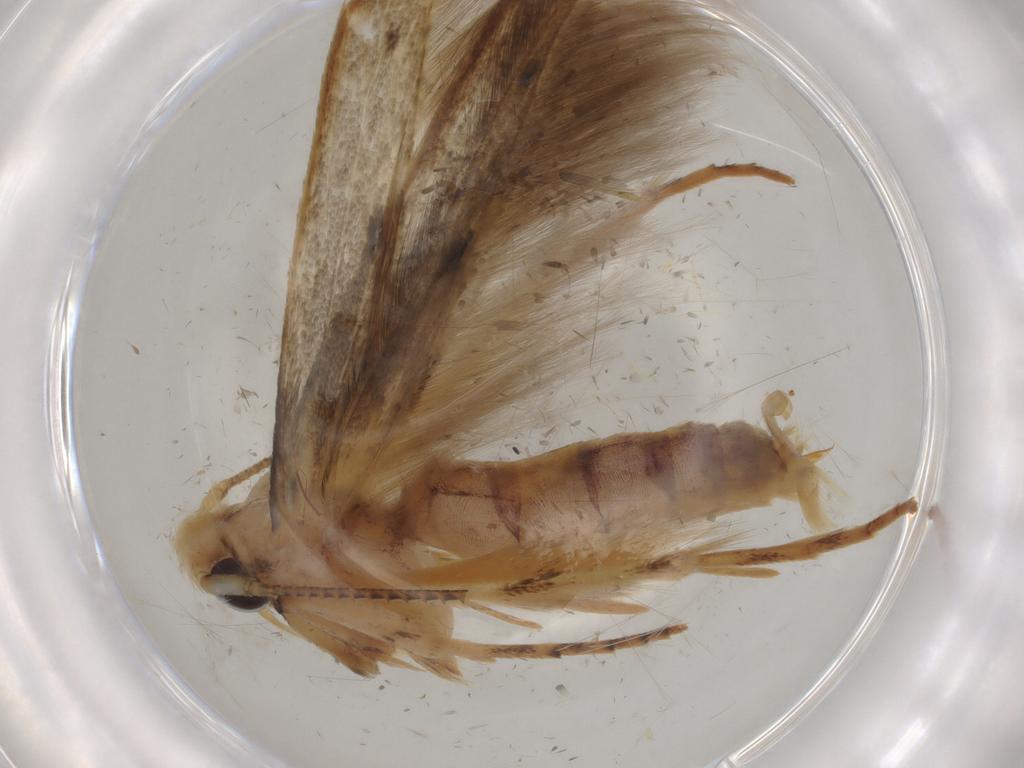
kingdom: Animalia
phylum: Arthropoda
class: Insecta
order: Lepidoptera
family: Opostegidae
